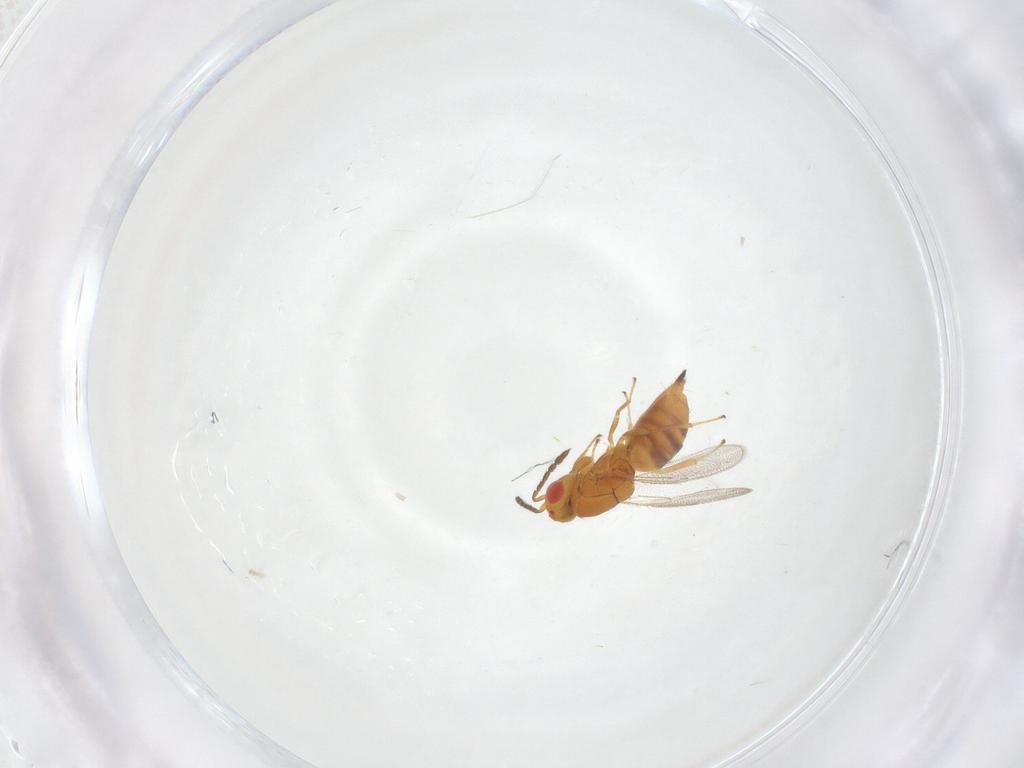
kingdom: Animalia
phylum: Arthropoda
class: Insecta
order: Hymenoptera
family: Eulophidae
